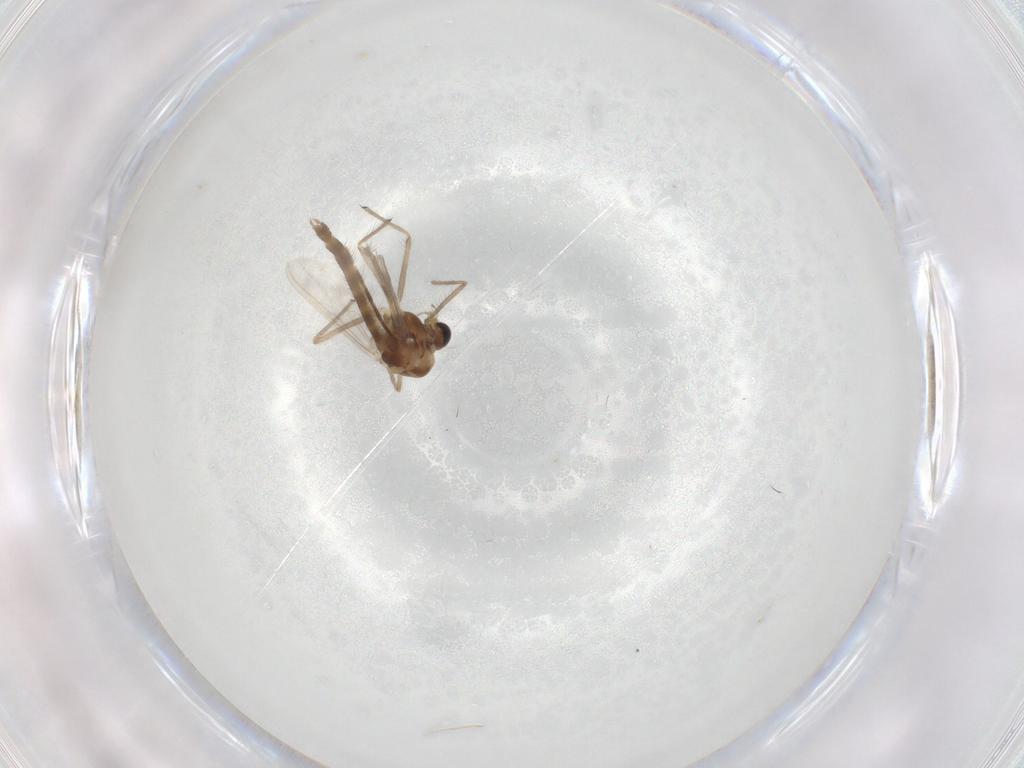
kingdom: Animalia
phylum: Arthropoda
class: Insecta
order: Diptera
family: Chironomidae
